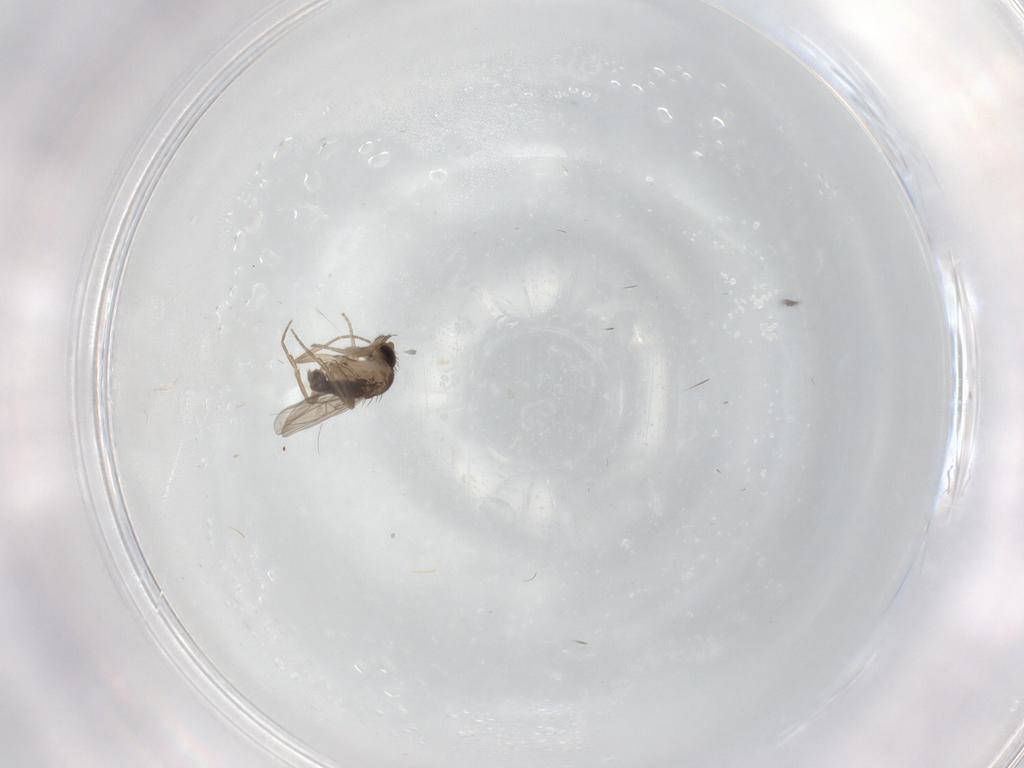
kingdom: Animalia
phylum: Arthropoda
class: Insecta
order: Diptera
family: Phoridae
